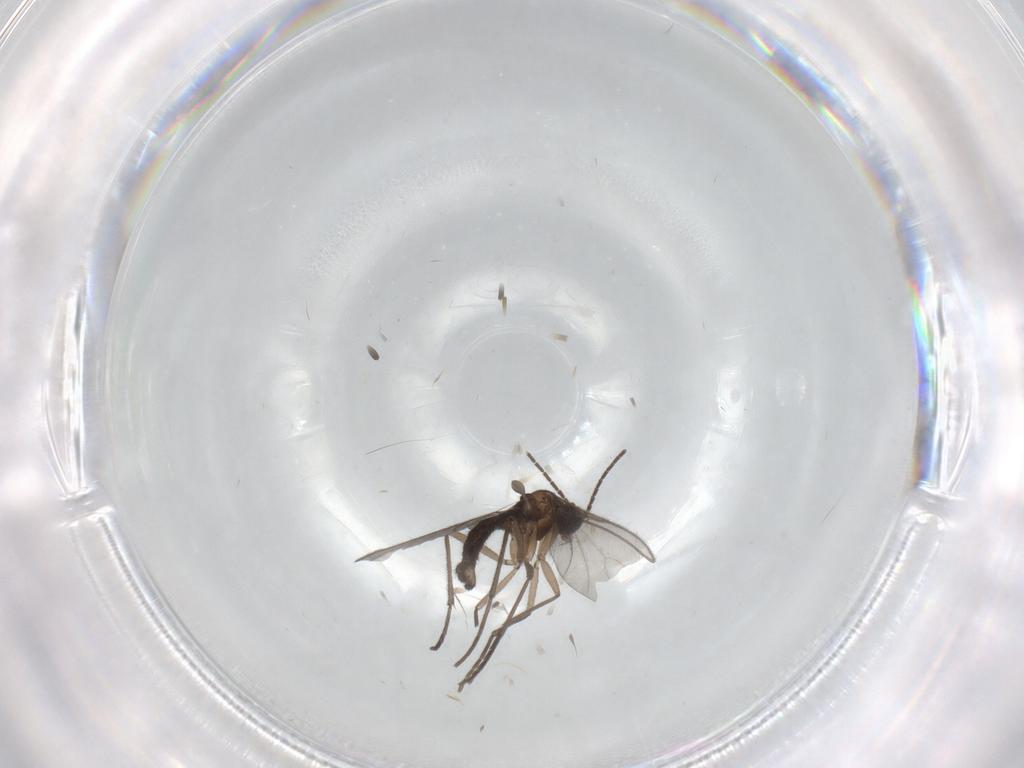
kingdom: Animalia
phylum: Arthropoda
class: Insecta
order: Diptera
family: Sciaridae
